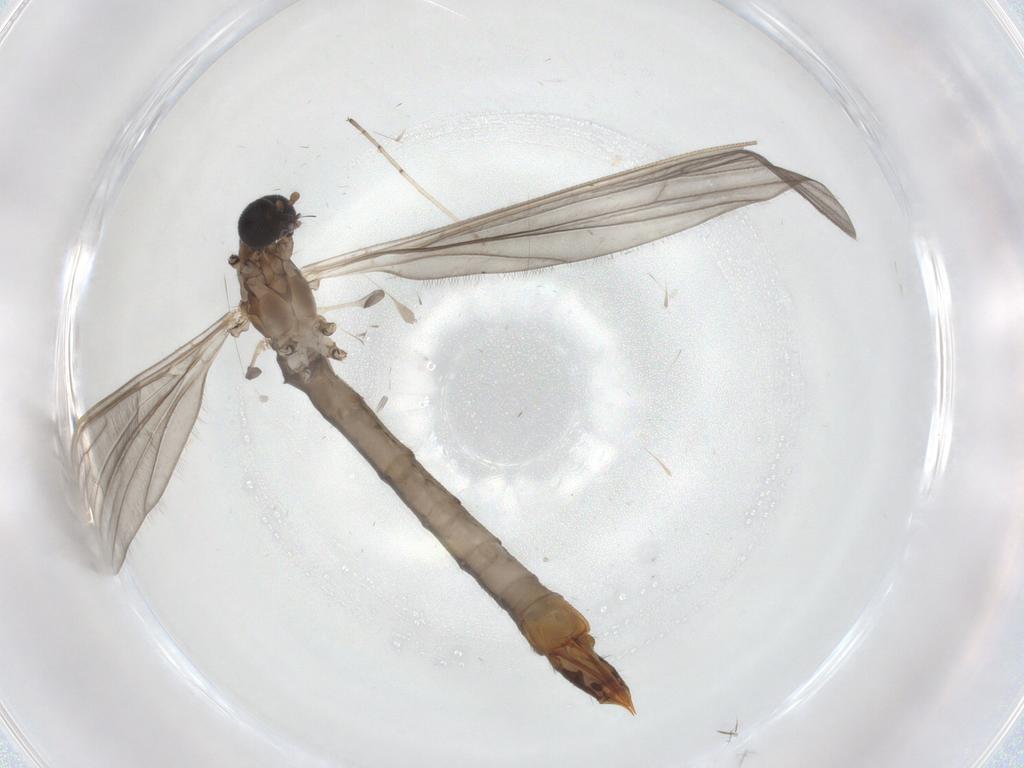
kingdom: Animalia
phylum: Arthropoda
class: Insecta
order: Diptera
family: Limoniidae
